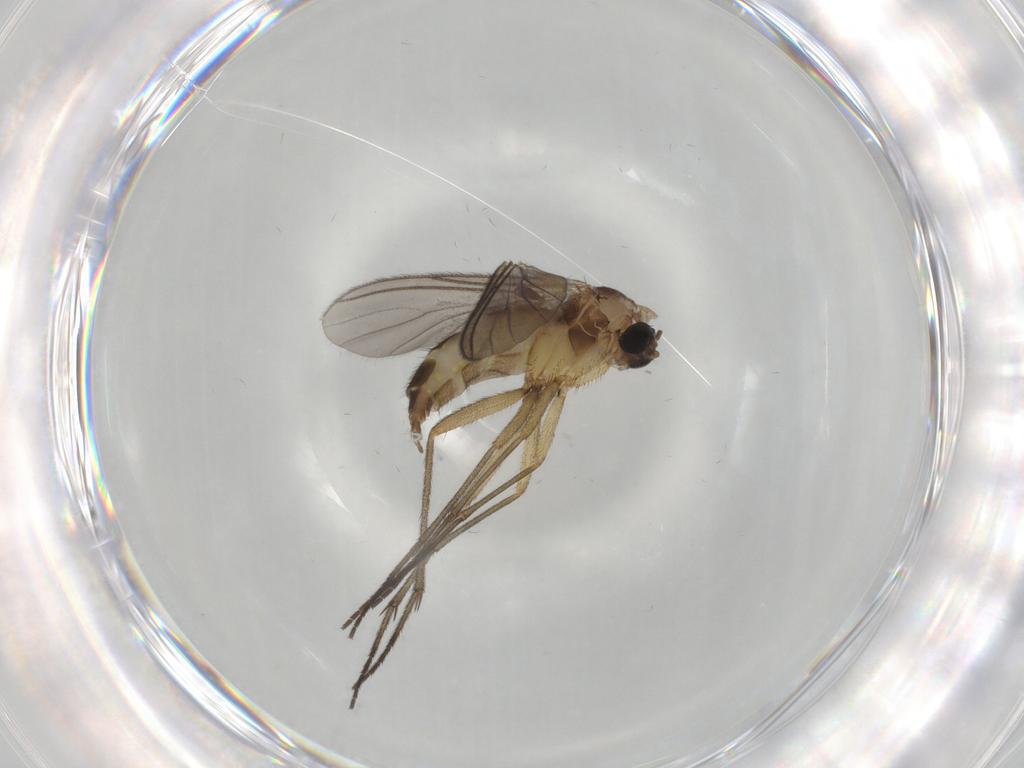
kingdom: Animalia
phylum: Arthropoda
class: Insecta
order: Diptera
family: Sciaridae
